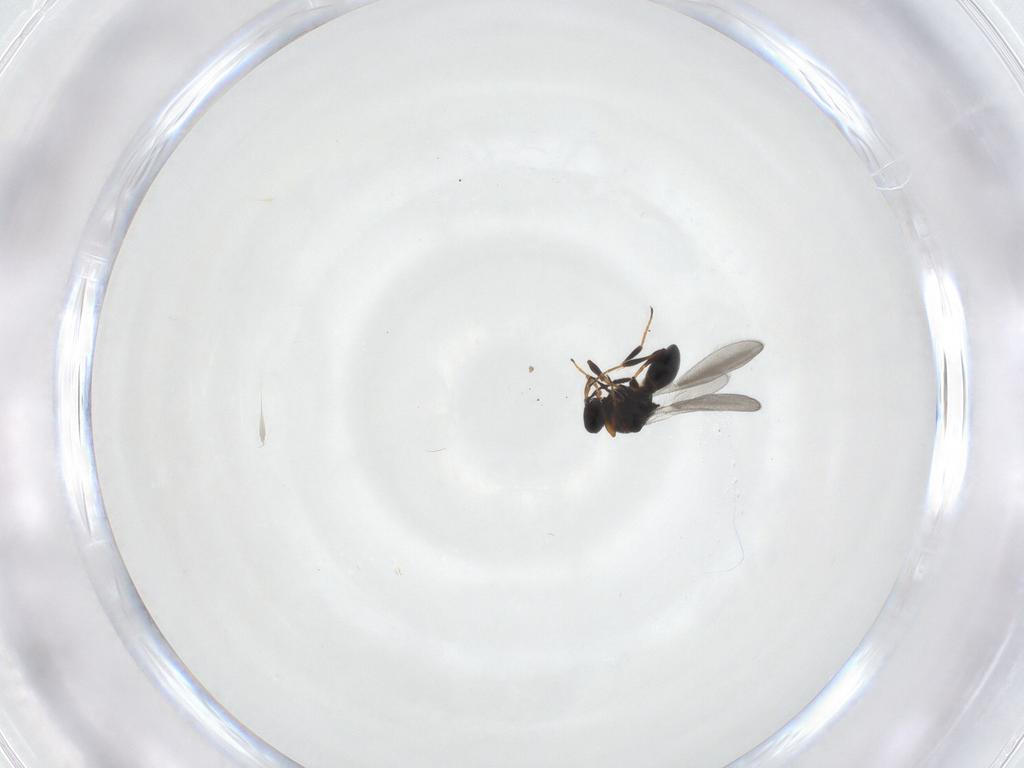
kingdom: Animalia
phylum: Arthropoda
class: Insecta
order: Hymenoptera
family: Platygastridae
